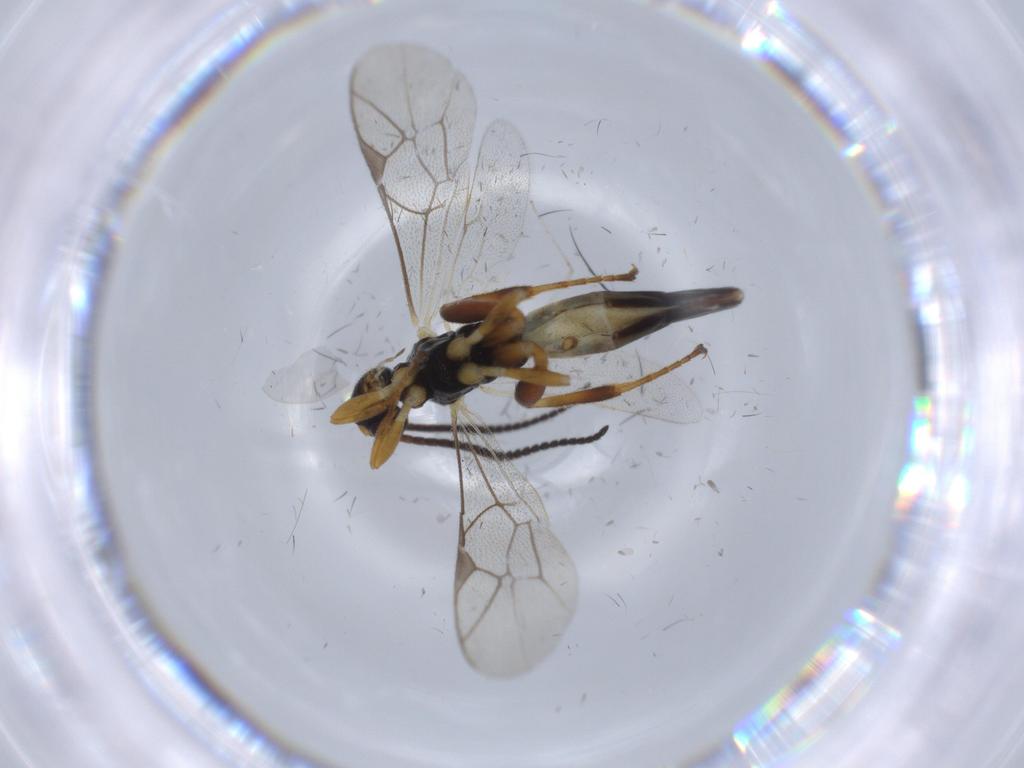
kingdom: Animalia
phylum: Arthropoda
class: Insecta
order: Hymenoptera
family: Ichneumonidae
